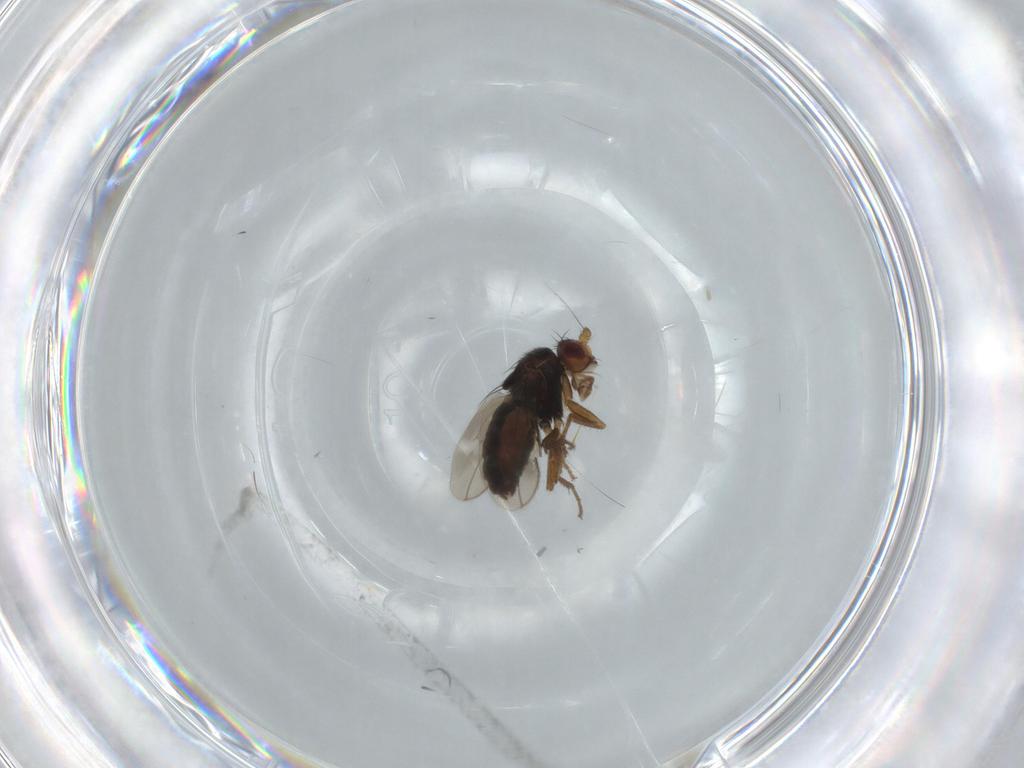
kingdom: Animalia
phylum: Arthropoda
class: Insecta
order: Diptera
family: Sphaeroceridae
